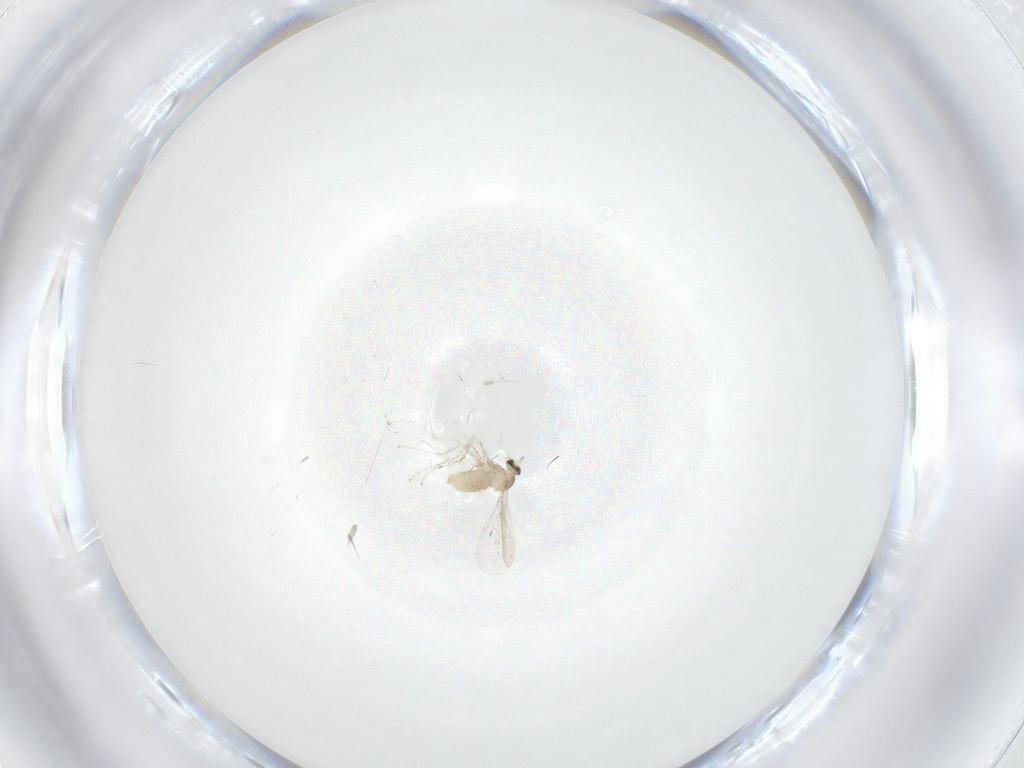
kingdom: Animalia
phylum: Arthropoda
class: Insecta
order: Diptera
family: Cecidomyiidae
